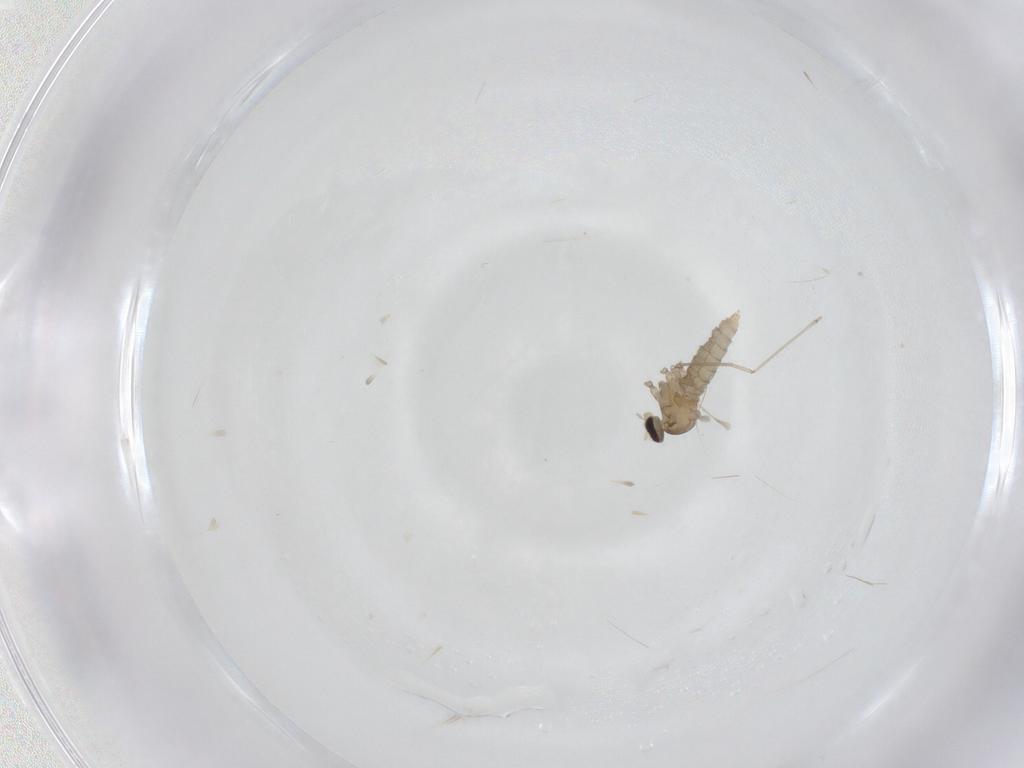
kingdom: Animalia
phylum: Arthropoda
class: Insecta
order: Diptera
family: Cecidomyiidae
